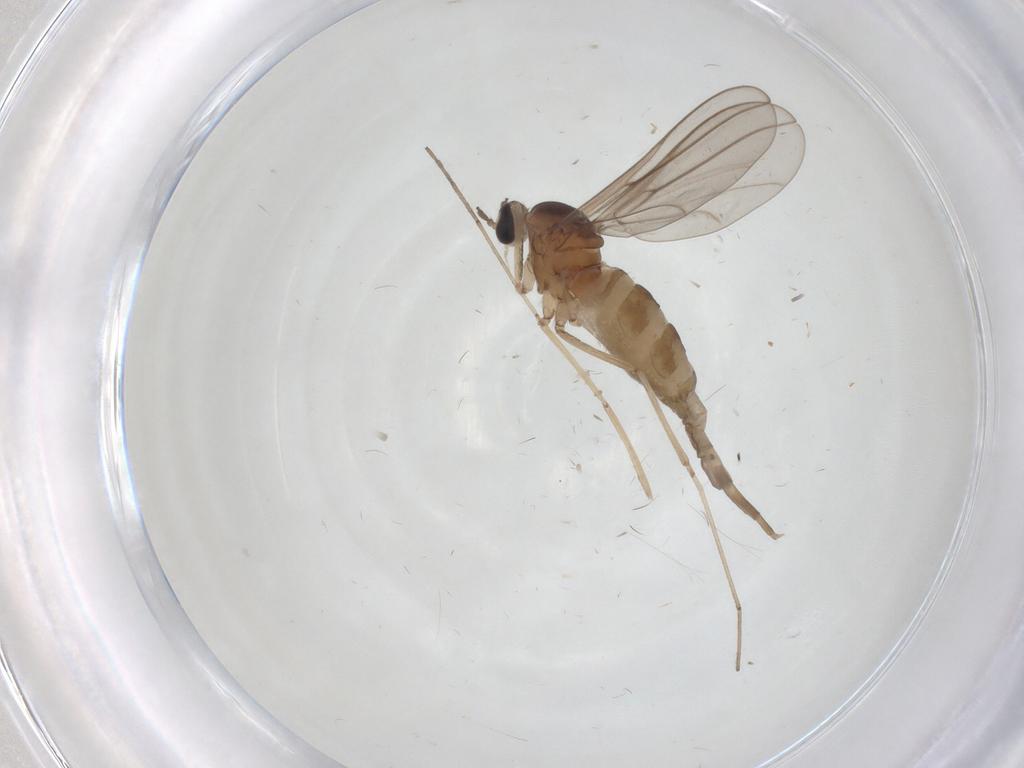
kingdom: Animalia
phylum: Arthropoda
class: Insecta
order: Diptera
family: Cecidomyiidae
